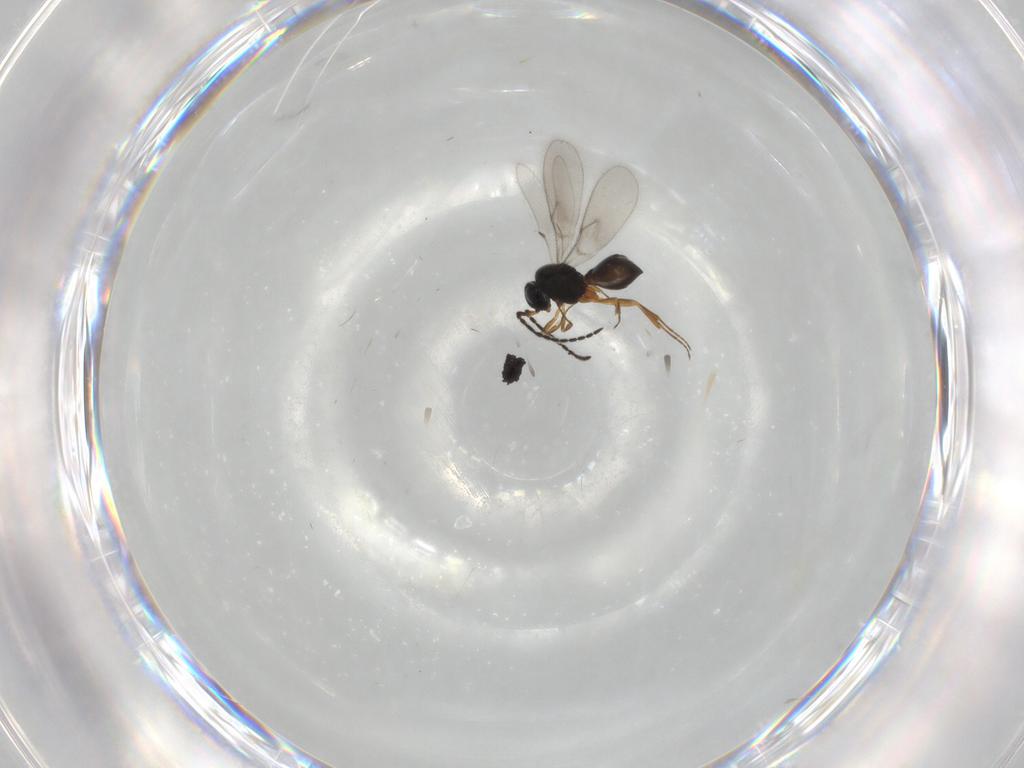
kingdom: Animalia
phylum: Arthropoda
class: Insecta
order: Hymenoptera
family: Scelionidae
